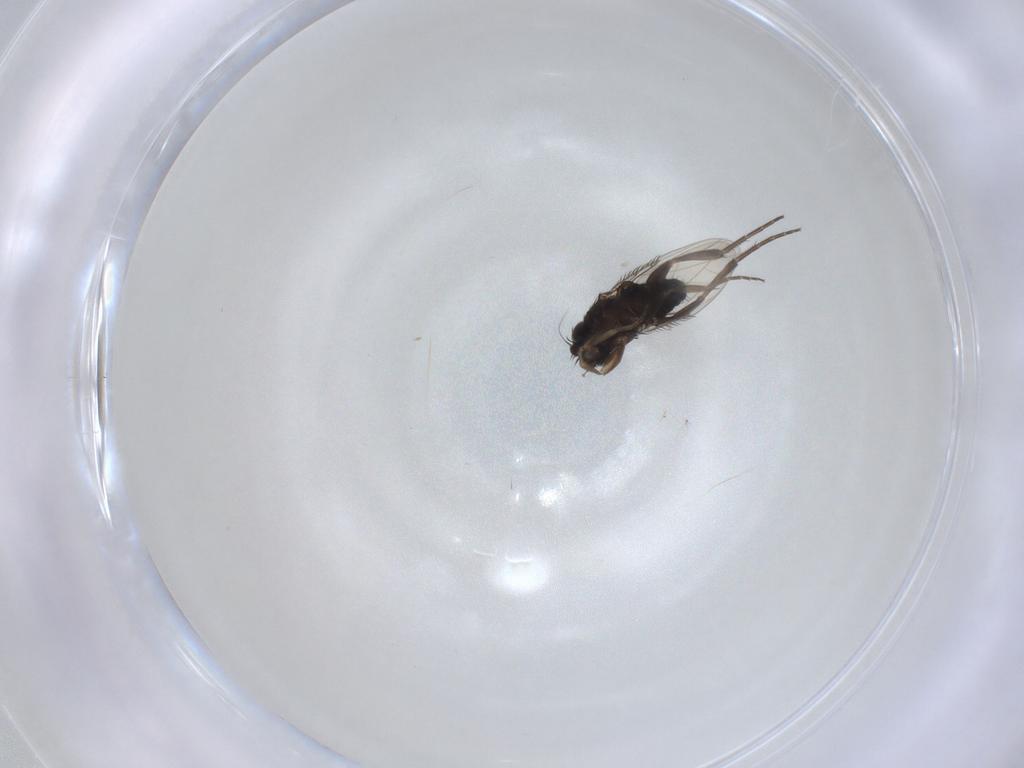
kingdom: Animalia
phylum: Arthropoda
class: Insecta
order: Diptera
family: Phoridae
